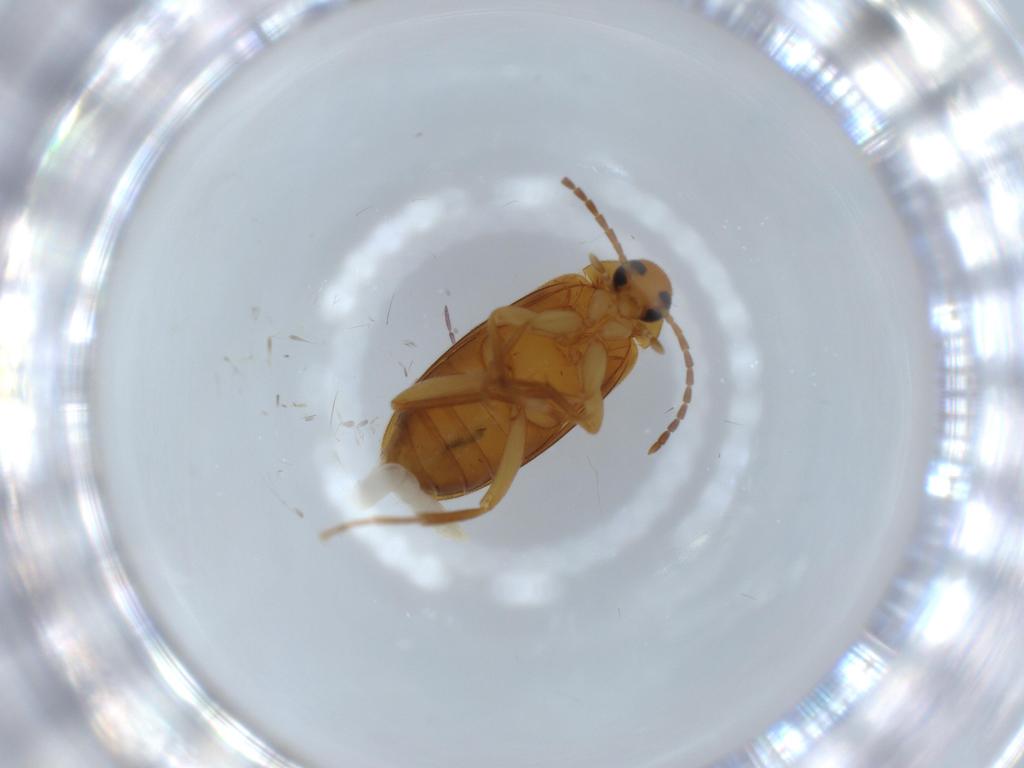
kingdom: Animalia
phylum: Arthropoda
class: Insecta
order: Coleoptera
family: Scraptiidae
